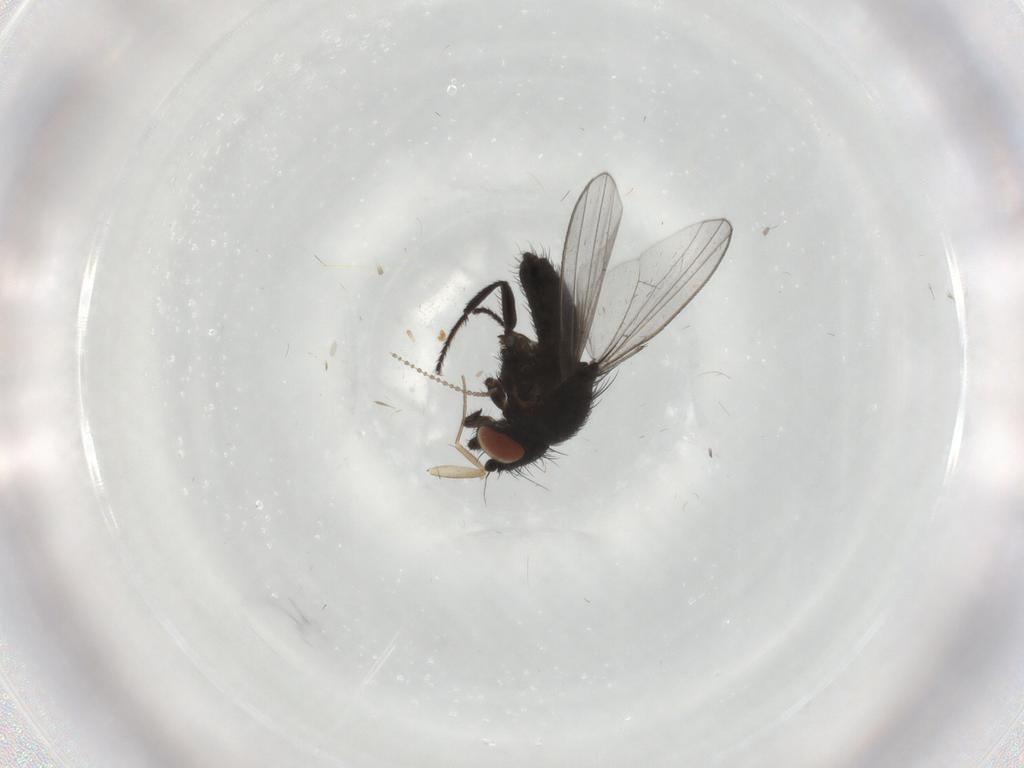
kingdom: Animalia
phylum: Arthropoda
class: Insecta
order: Diptera
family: Milichiidae
